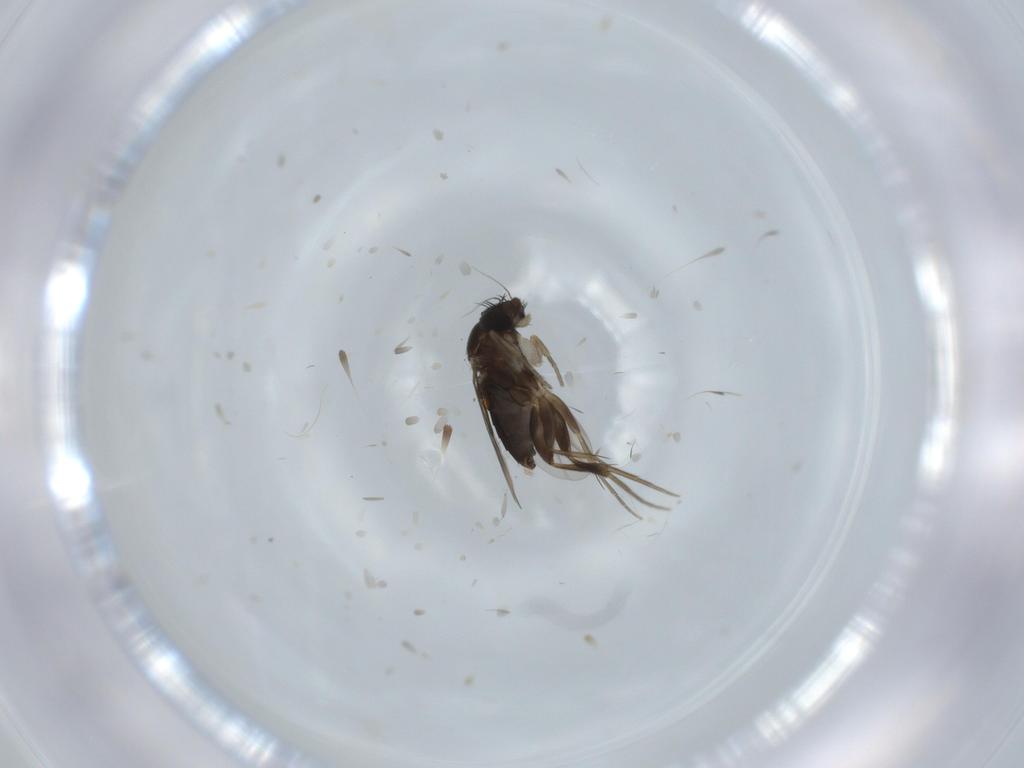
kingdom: Animalia
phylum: Arthropoda
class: Insecta
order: Diptera
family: Phoridae
